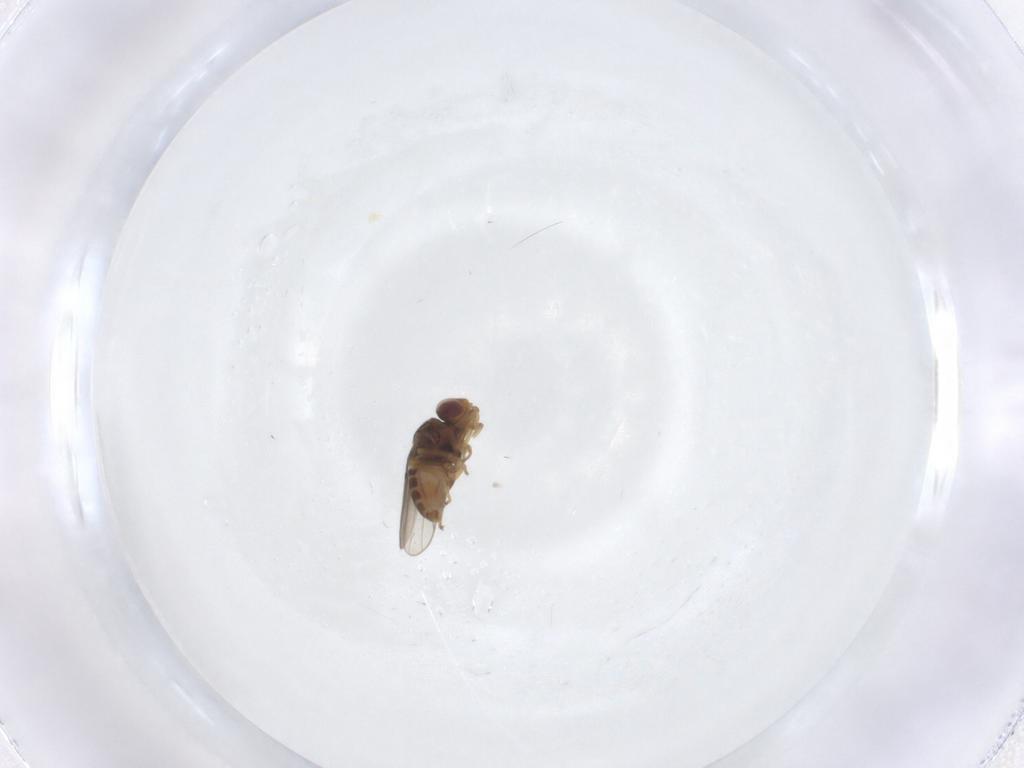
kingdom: Animalia
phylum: Arthropoda
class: Insecta
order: Diptera
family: Chloropidae
